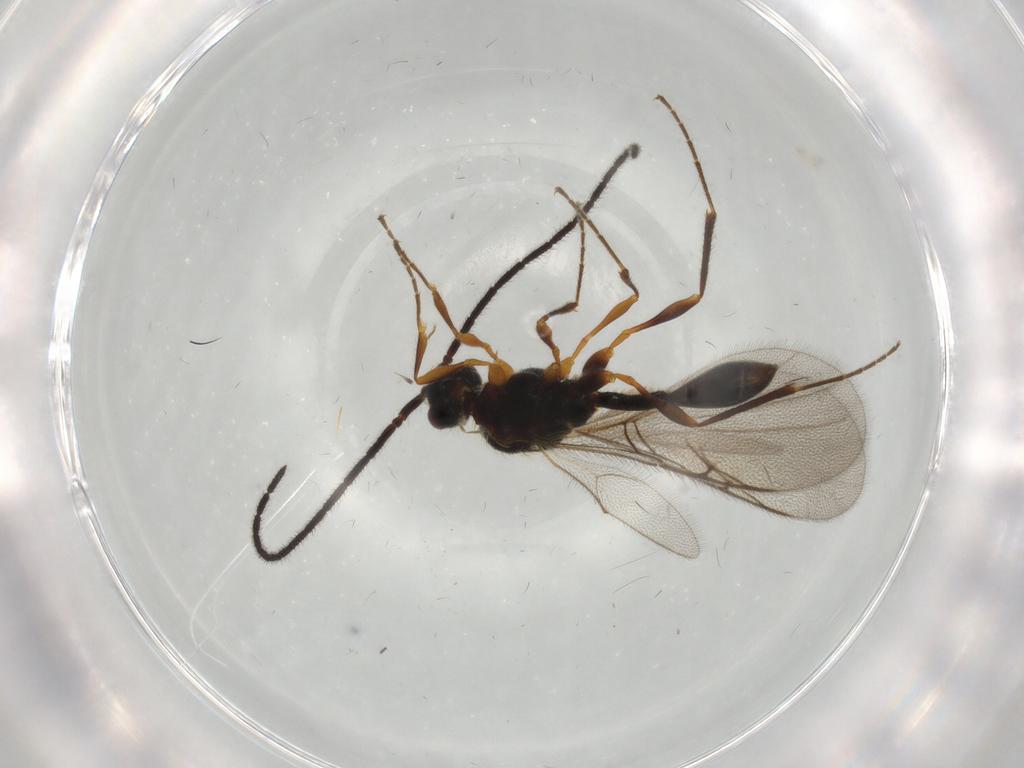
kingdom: Animalia
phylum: Arthropoda
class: Insecta
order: Hymenoptera
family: Diapriidae
